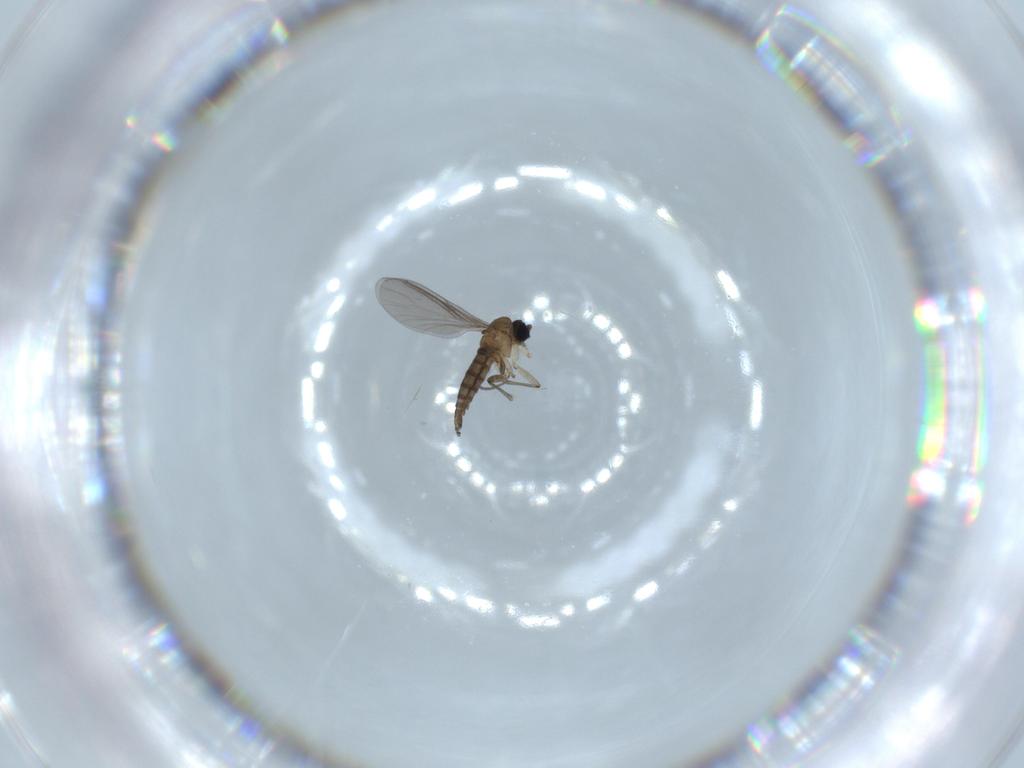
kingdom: Animalia
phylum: Arthropoda
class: Insecta
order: Diptera
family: Sciaridae
